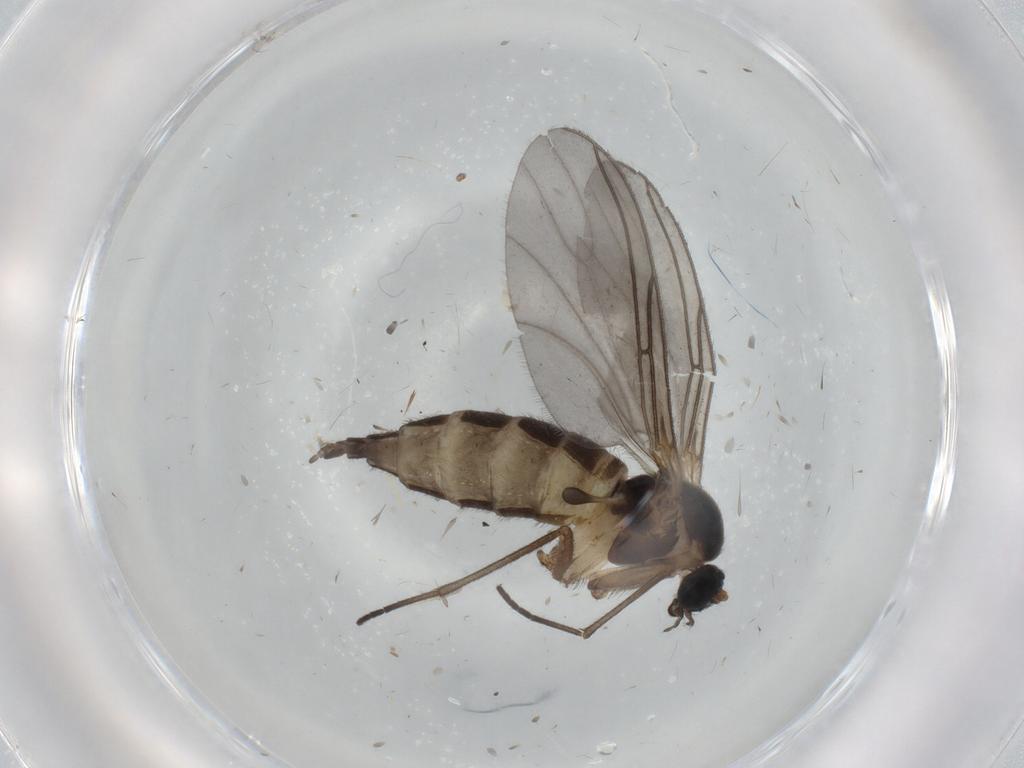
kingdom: Animalia
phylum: Arthropoda
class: Insecta
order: Diptera
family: Sciaridae
